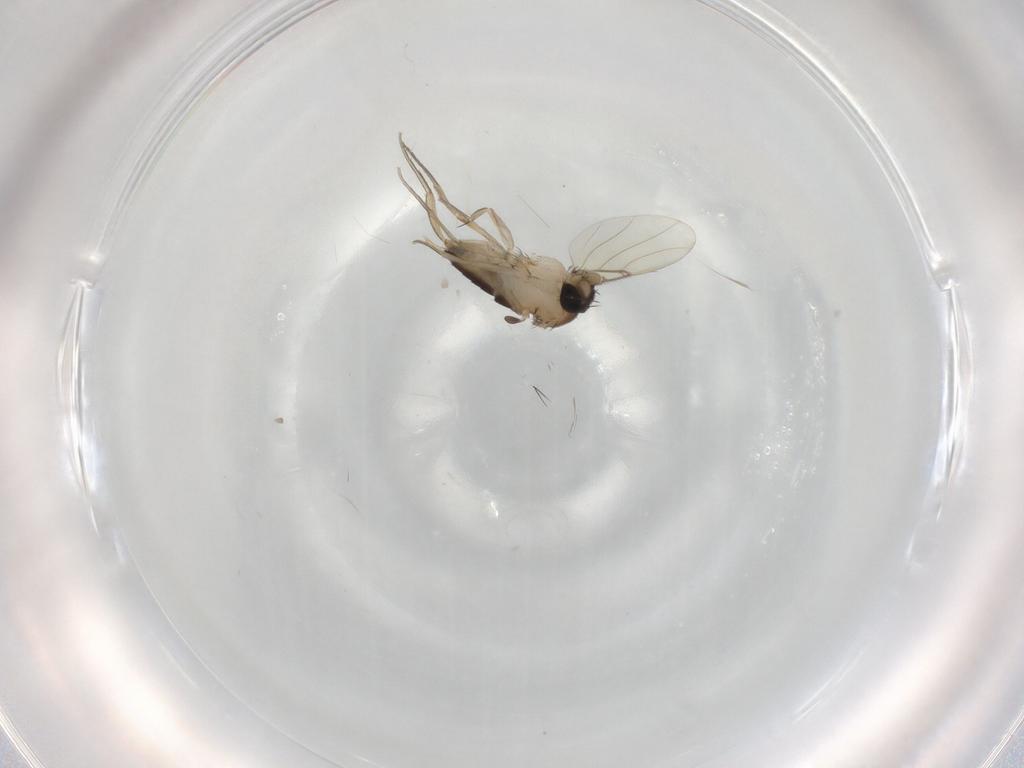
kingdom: Animalia
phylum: Arthropoda
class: Insecta
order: Diptera
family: Phoridae
